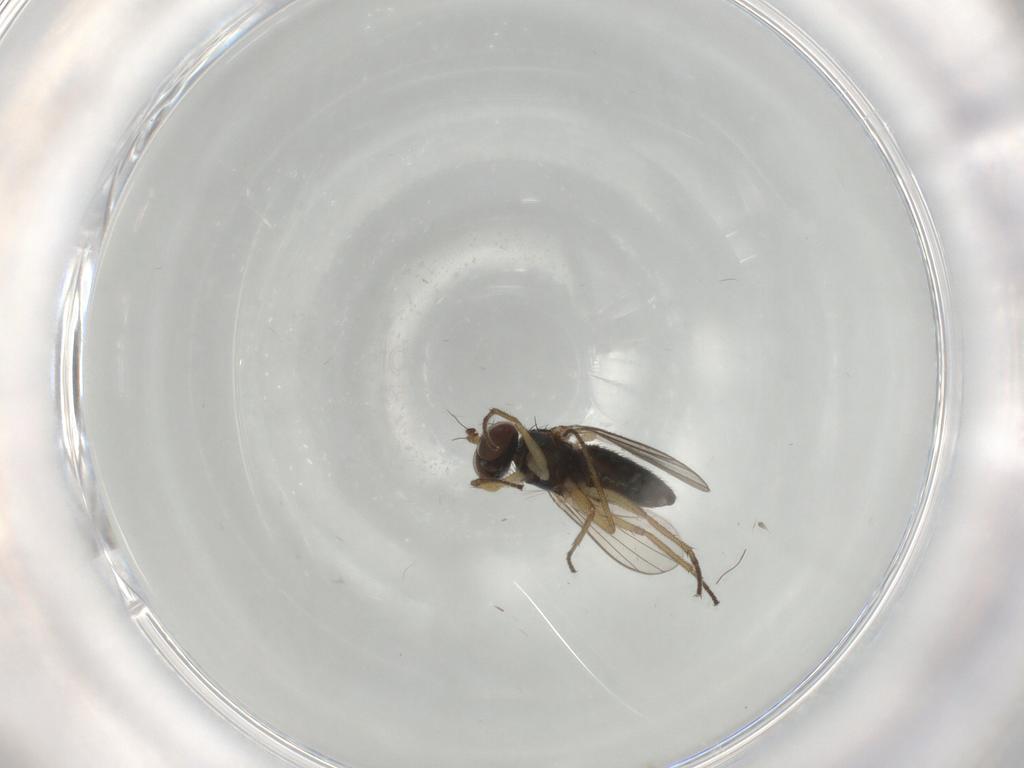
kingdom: Animalia
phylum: Arthropoda
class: Insecta
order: Diptera
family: Dolichopodidae
